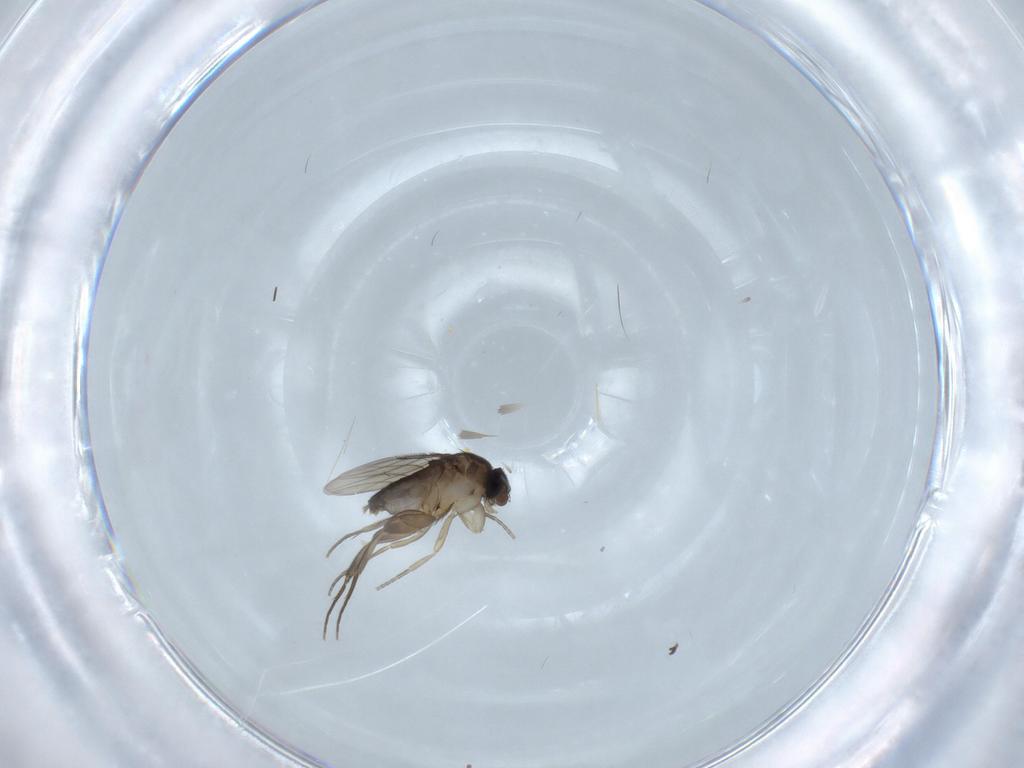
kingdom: Animalia
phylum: Arthropoda
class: Insecta
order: Diptera
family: Phoridae
